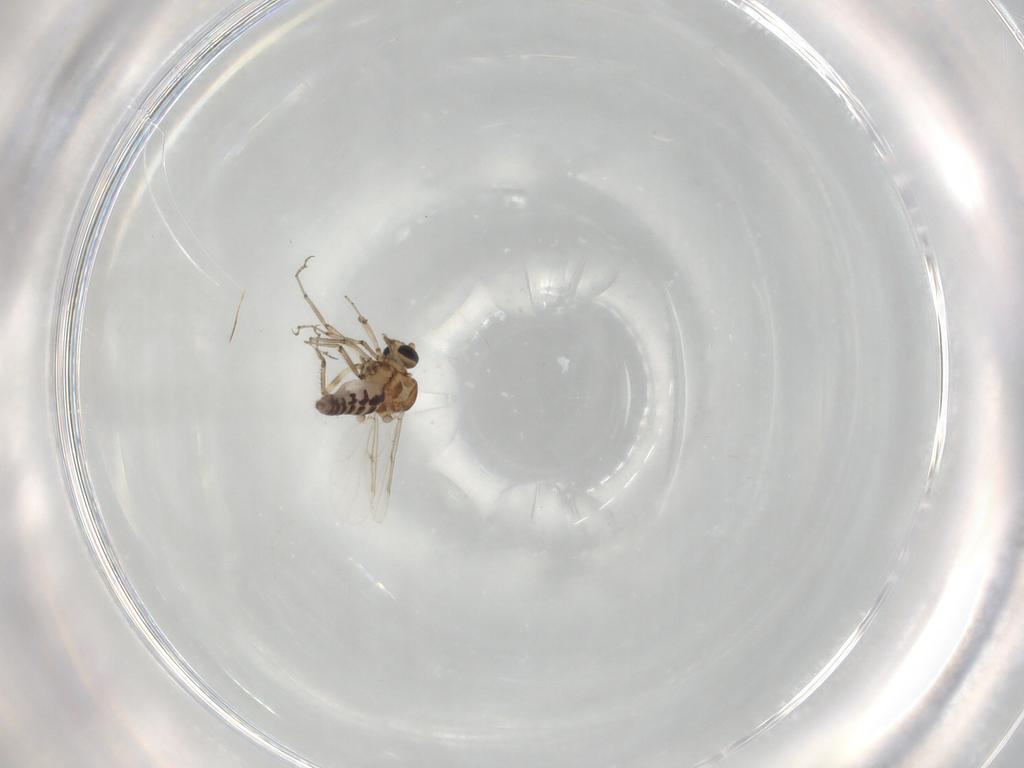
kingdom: Animalia
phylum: Arthropoda
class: Insecta
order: Diptera
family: Ceratopogonidae
